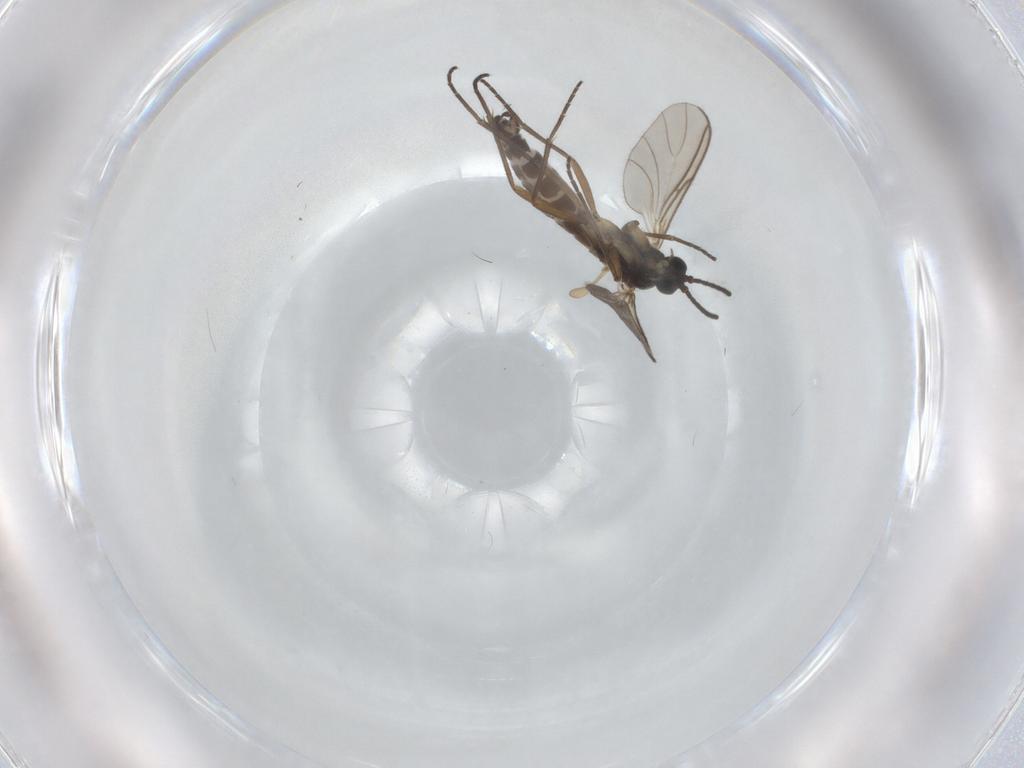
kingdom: Animalia
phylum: Arthropoda
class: Insecta
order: Diptera
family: Sciaridae
